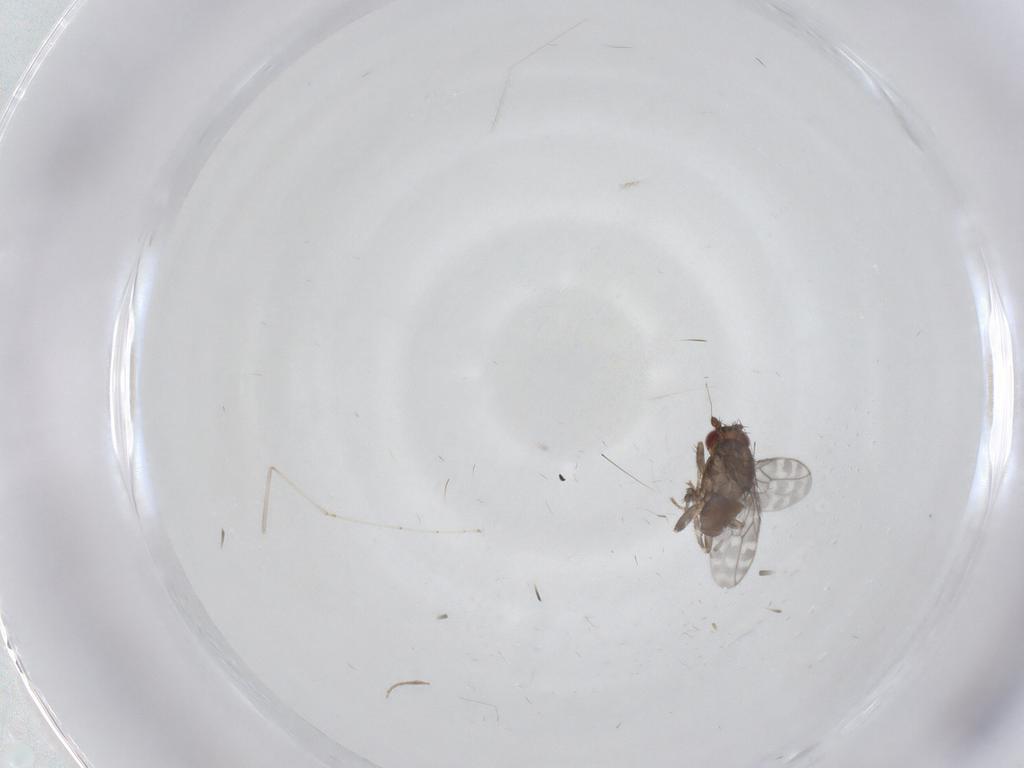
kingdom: Animalia
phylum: Arthropoda
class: Insecta
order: Diptera
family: Cecidomyiidae
